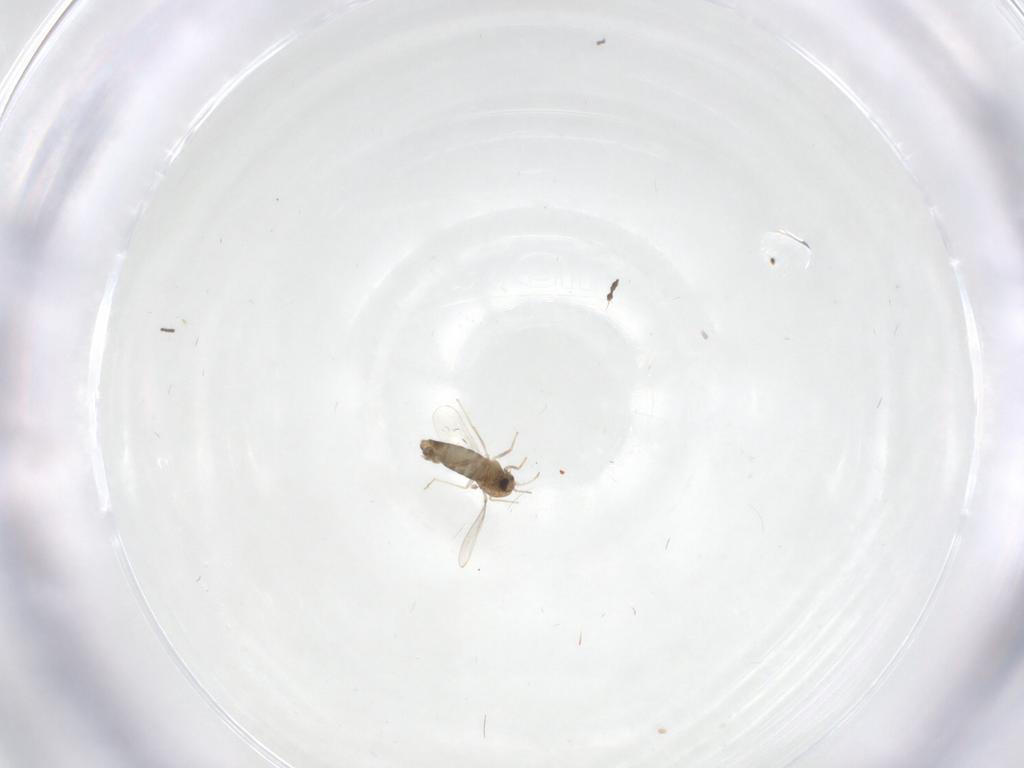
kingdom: Animalia
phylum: Arthropoda
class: Insecta
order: Diptera
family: Chironomidae
